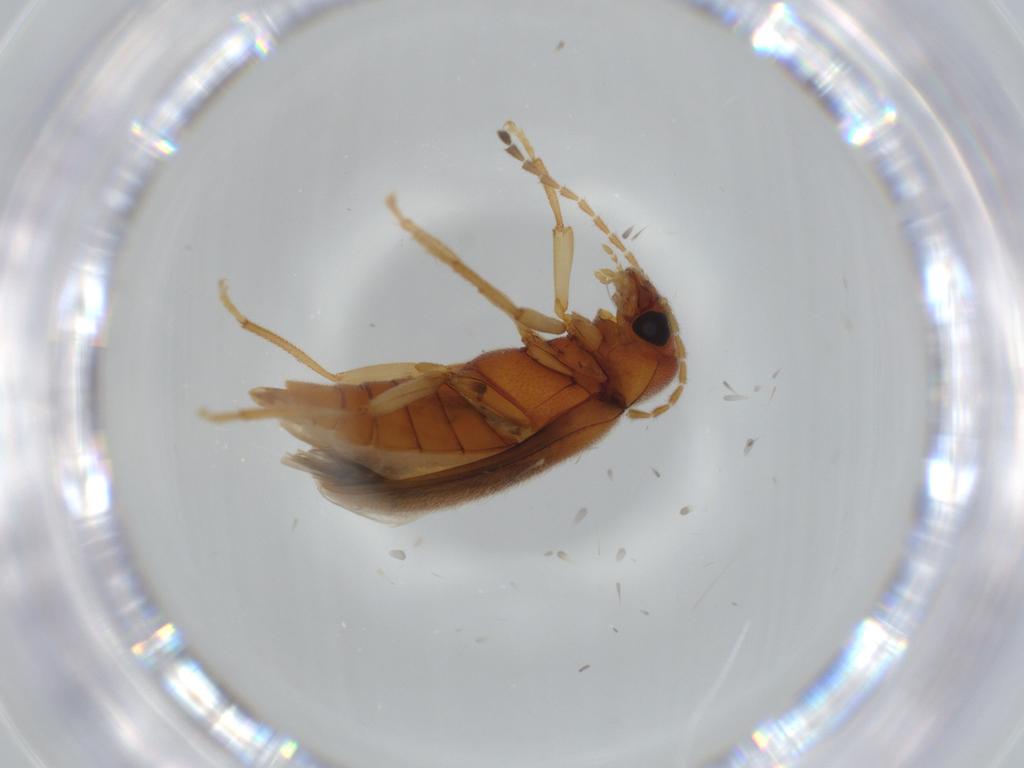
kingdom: Animalia
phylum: Arthropoda
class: Insecta
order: Coleoptera
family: Ptilodactylidae
